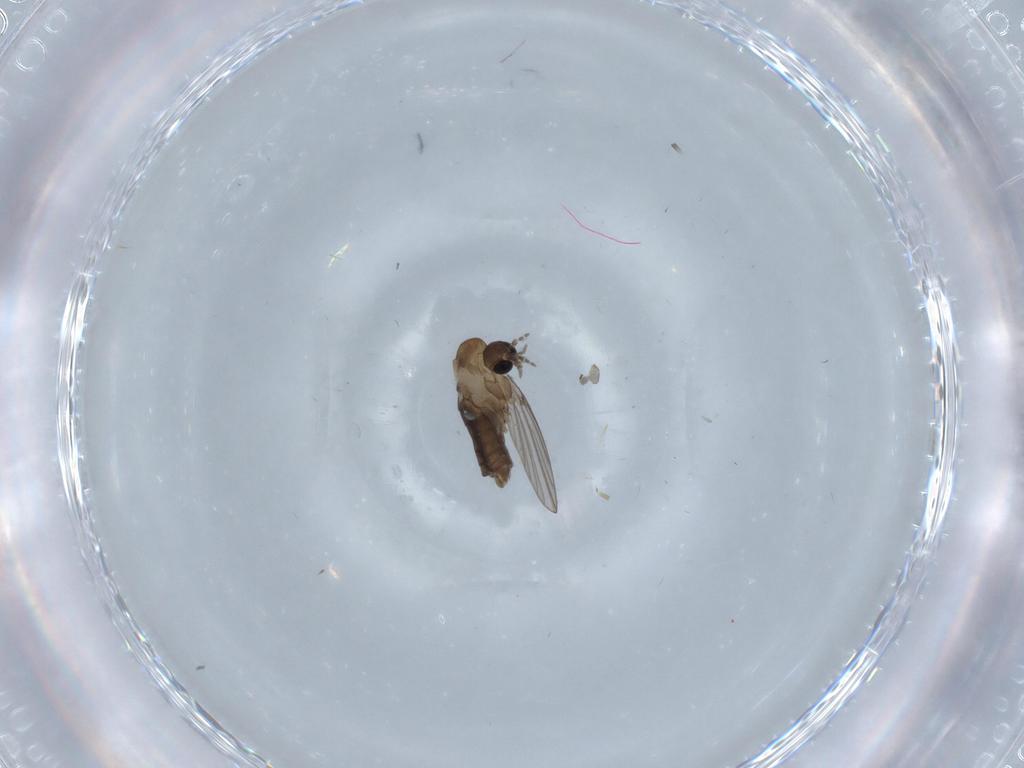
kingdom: Animalia
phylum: Arthropoda
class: Insecta
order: Diptera
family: Psychodidae
